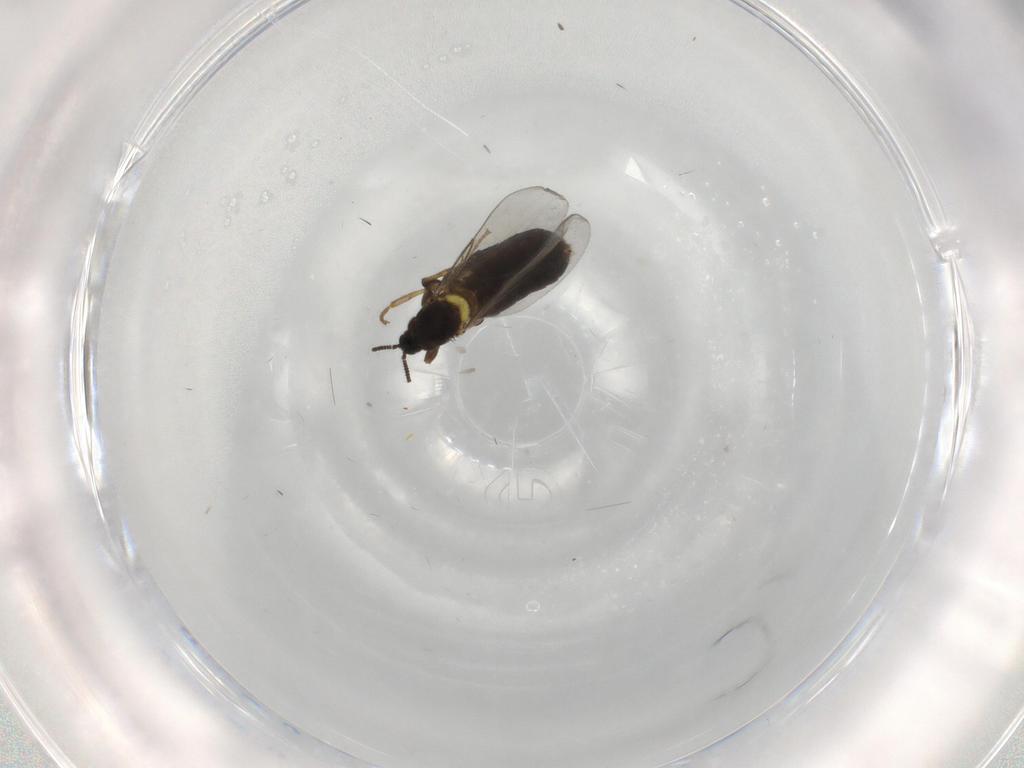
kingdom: Animalia
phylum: Arthropoda
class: Insecta
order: Diptera
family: Scatopsidae
